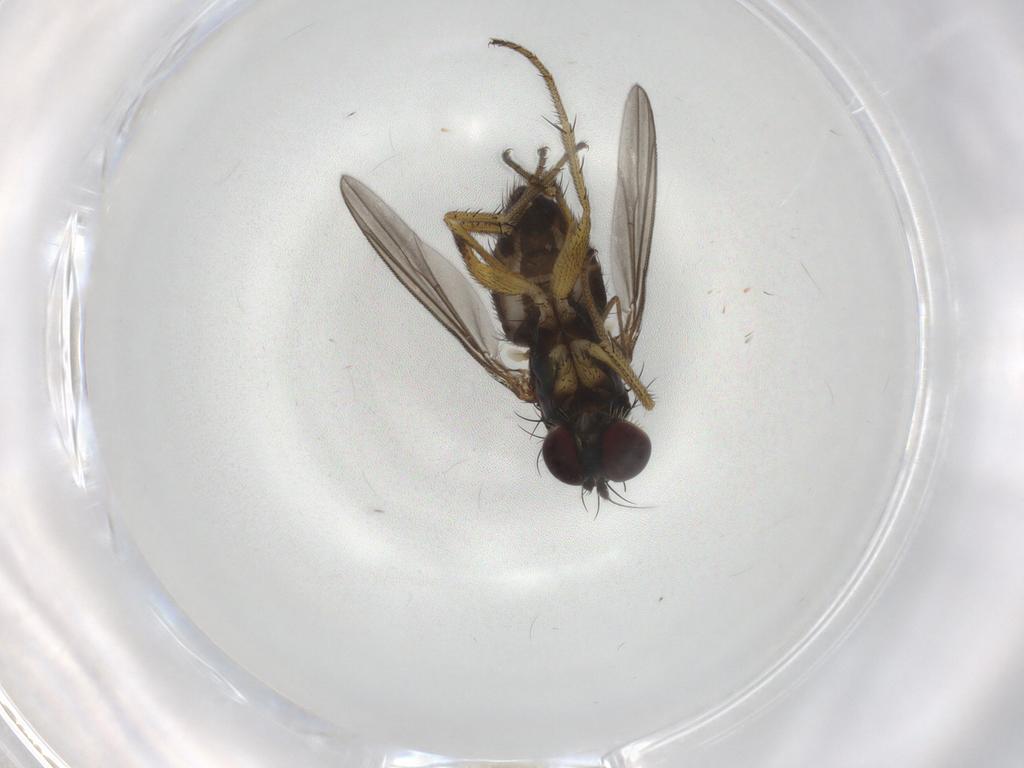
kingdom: Animalia
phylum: Arthropoda
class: Insecta
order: Diptera
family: Dolichopodidae
